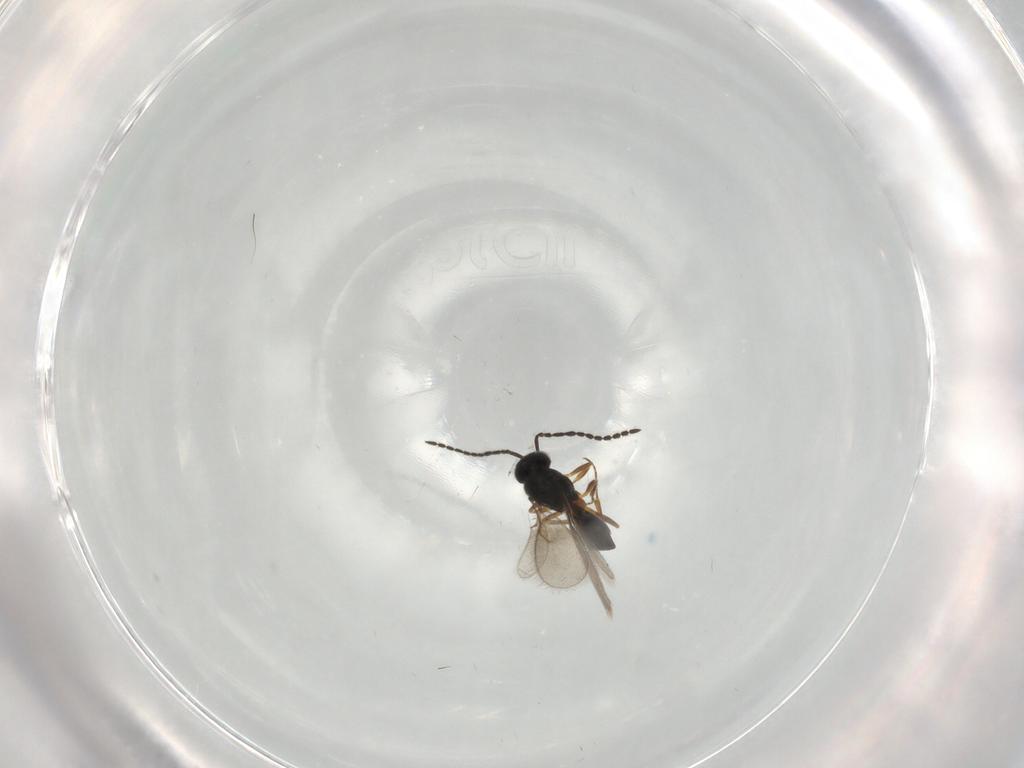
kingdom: Animalia
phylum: Arthropoda
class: Insecta
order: Hymenoptera
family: Scelionidae
